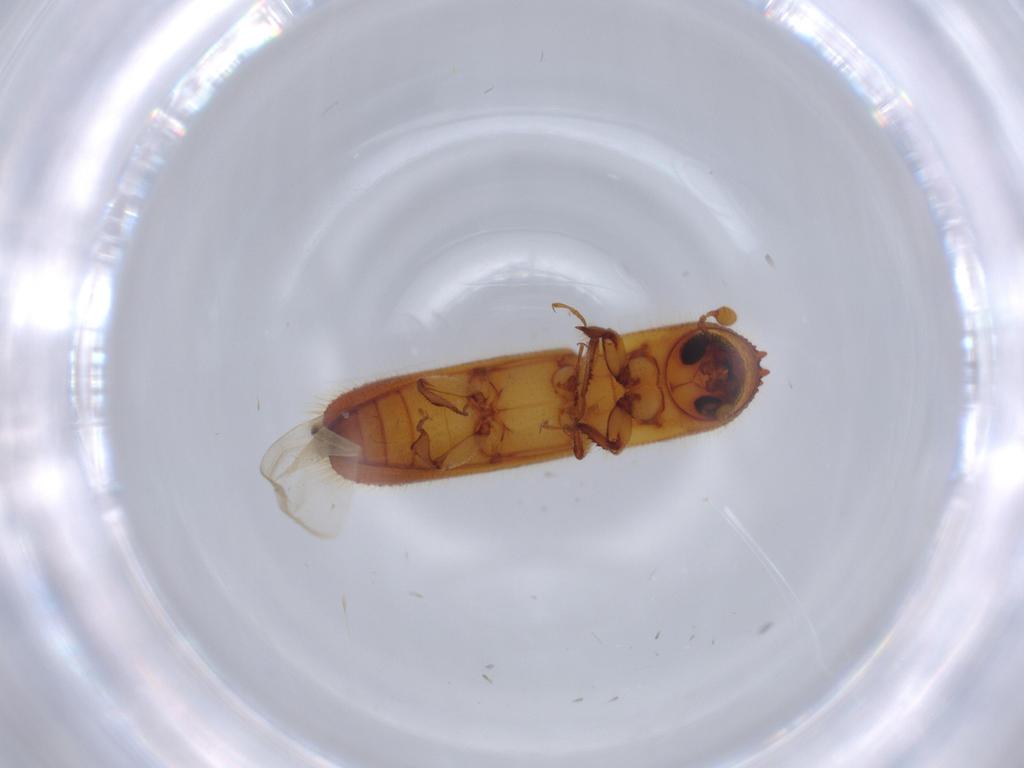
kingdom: Animalia
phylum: Arthropoda
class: Insecta
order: Coleoptera
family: Curculionidae
